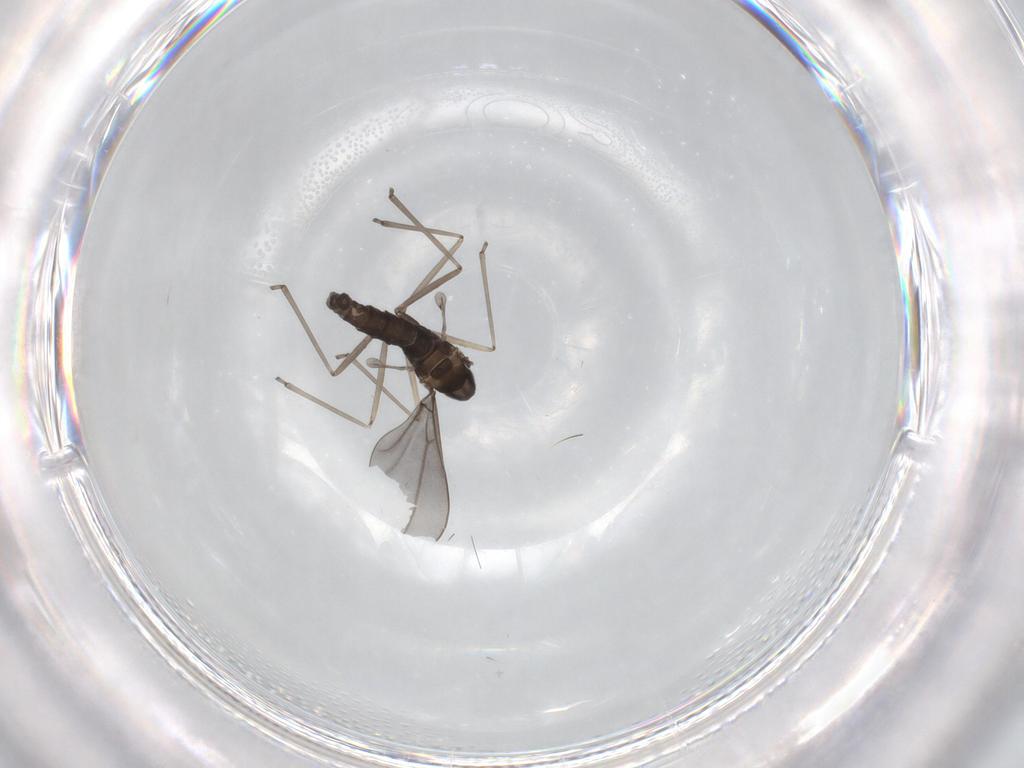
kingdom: Animalia
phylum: Arthropoda
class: Insecta
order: Diptera
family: Cecidomyiidae
